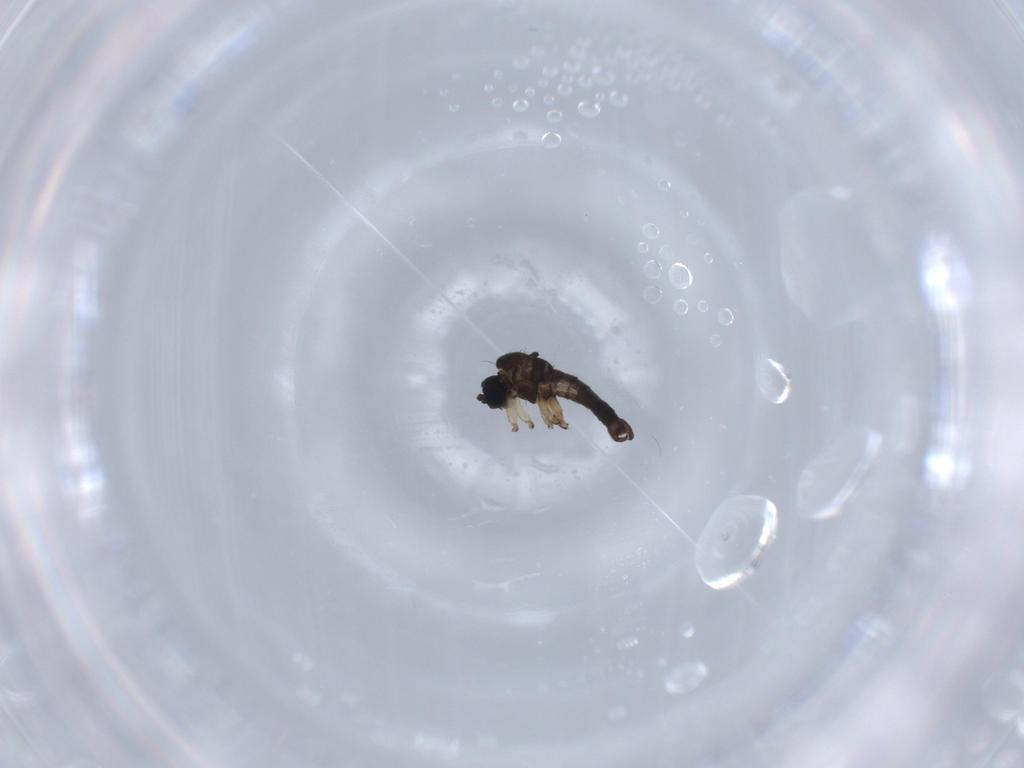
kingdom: Animalia
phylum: Arthropoda
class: Insecta
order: Diptera
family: Sciaridae
